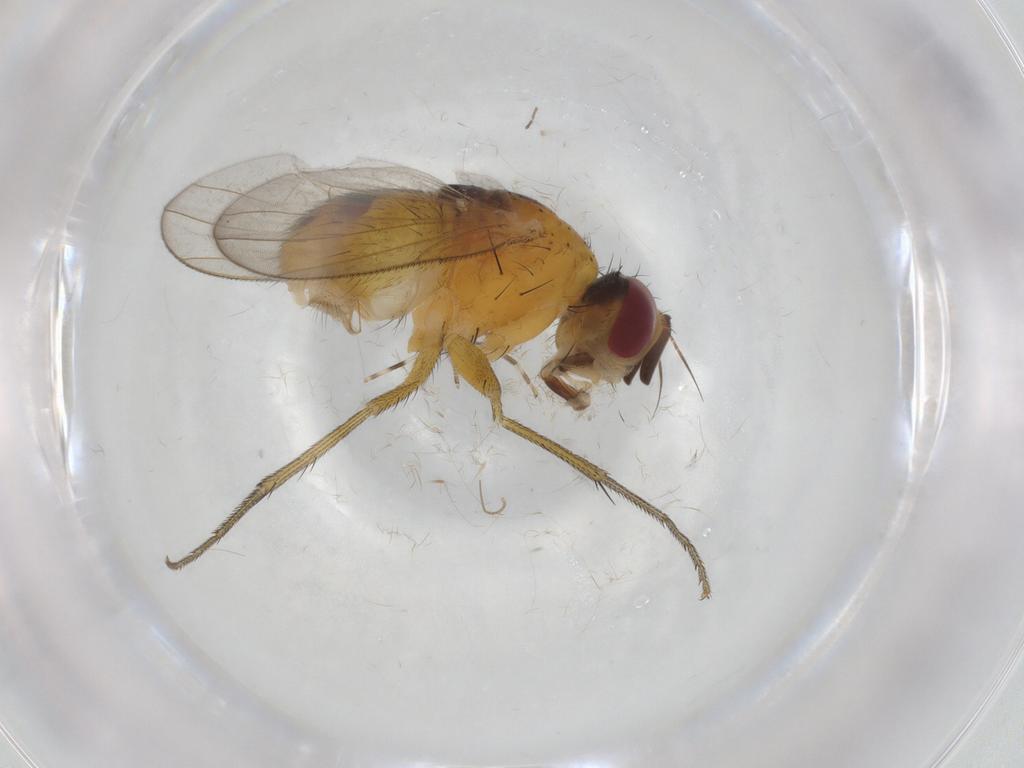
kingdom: Animalia
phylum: Arthropoda
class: Insecta
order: Diptera
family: Muscidae
